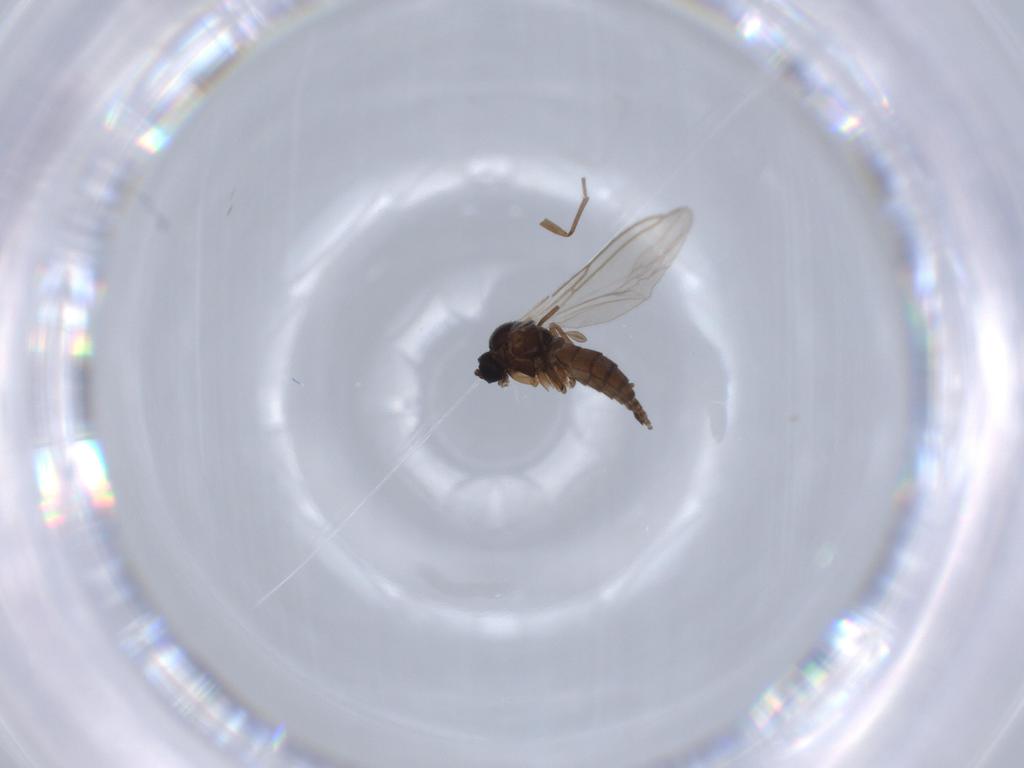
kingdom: Animalia
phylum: Arthropoda
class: Insecta
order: Diptera
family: Sciaridae
